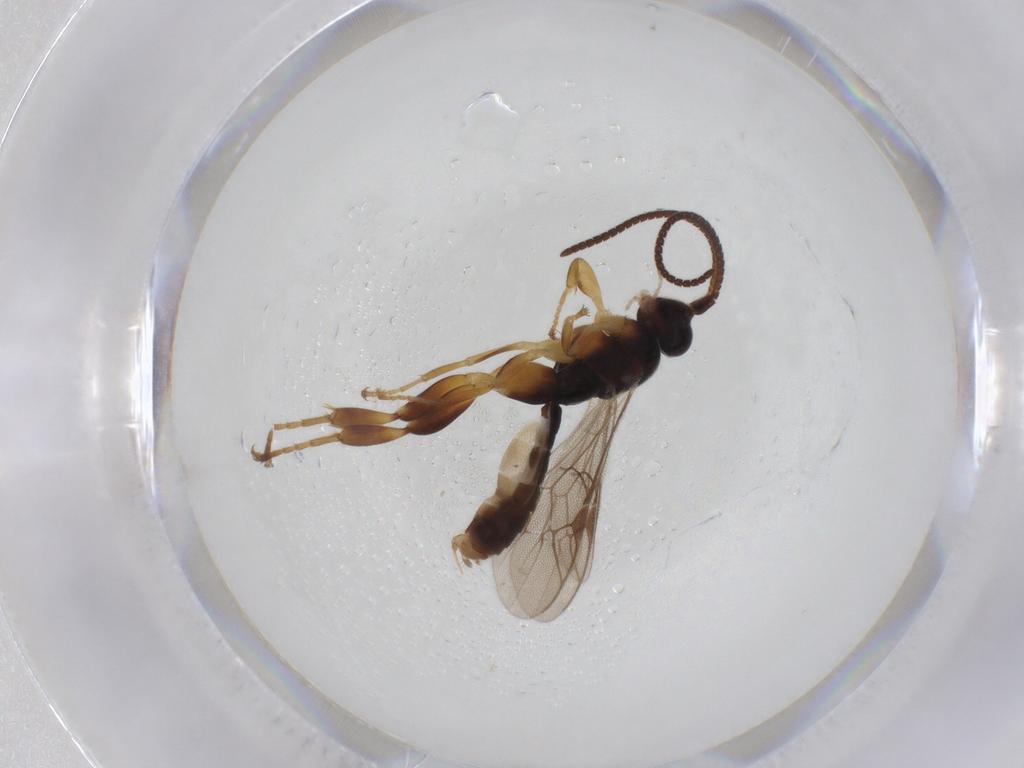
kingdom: Animalia
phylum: Arthropoda
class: Insecta
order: Hymenoptera
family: Ichneumonidae
